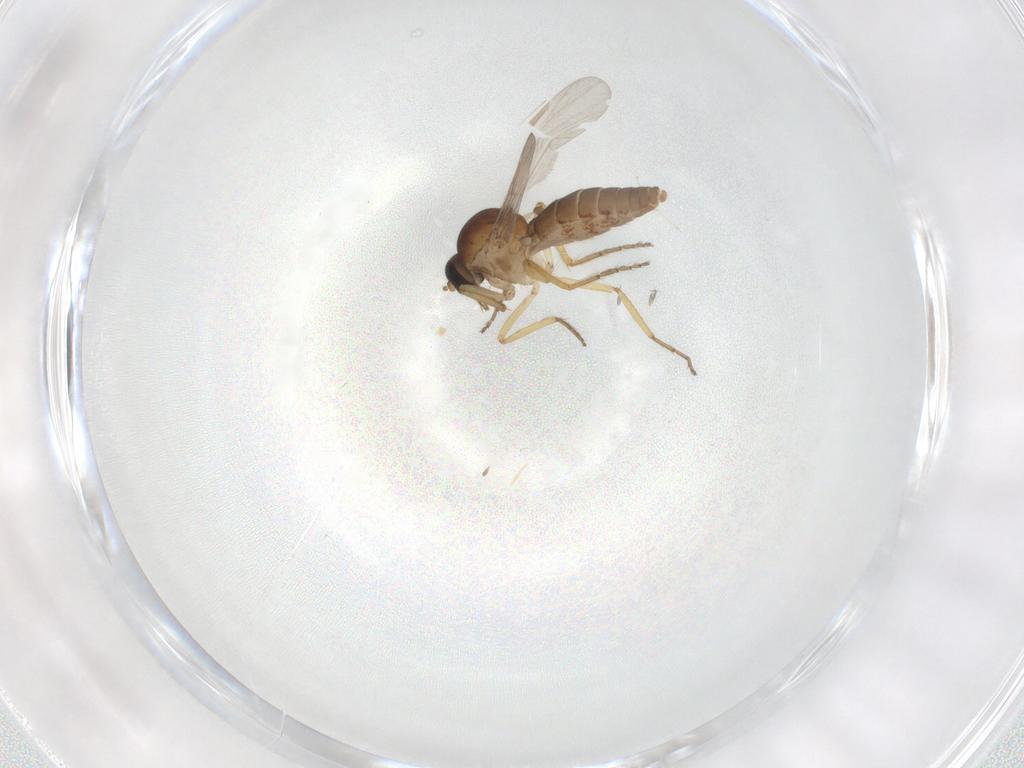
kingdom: Animalia
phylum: Arthropoda
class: Insecta
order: Diptera
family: Ceratopogonidae
